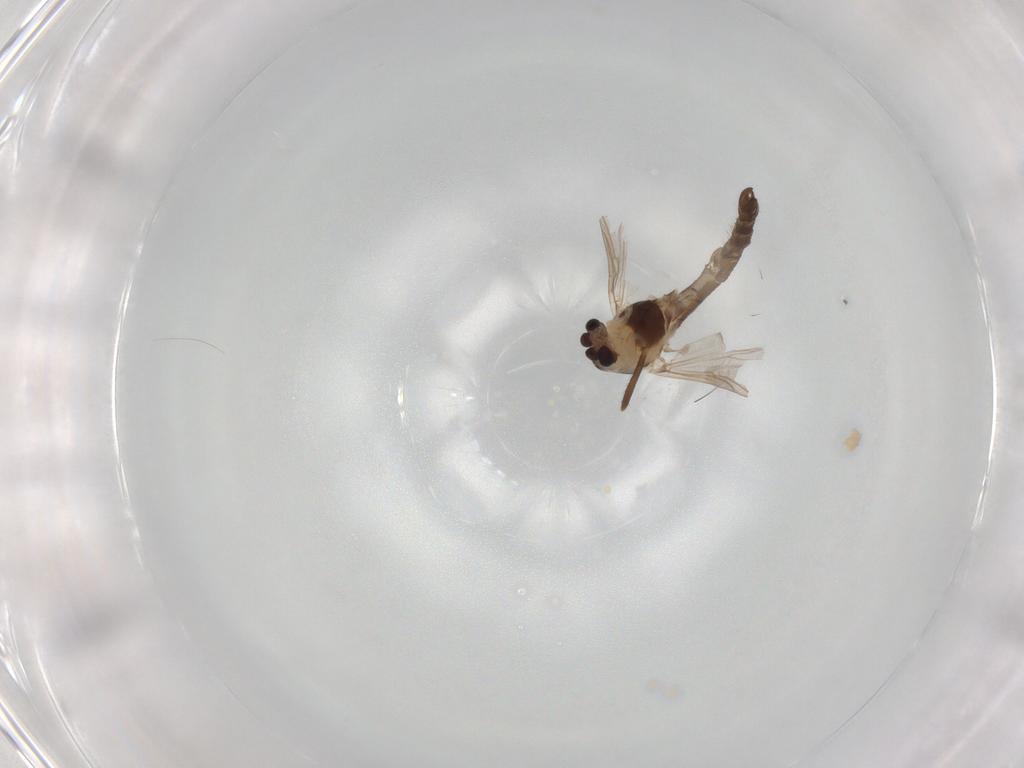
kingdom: Animalia
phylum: Arthropoda
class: Insecta
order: Diptera
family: Chironomidae
